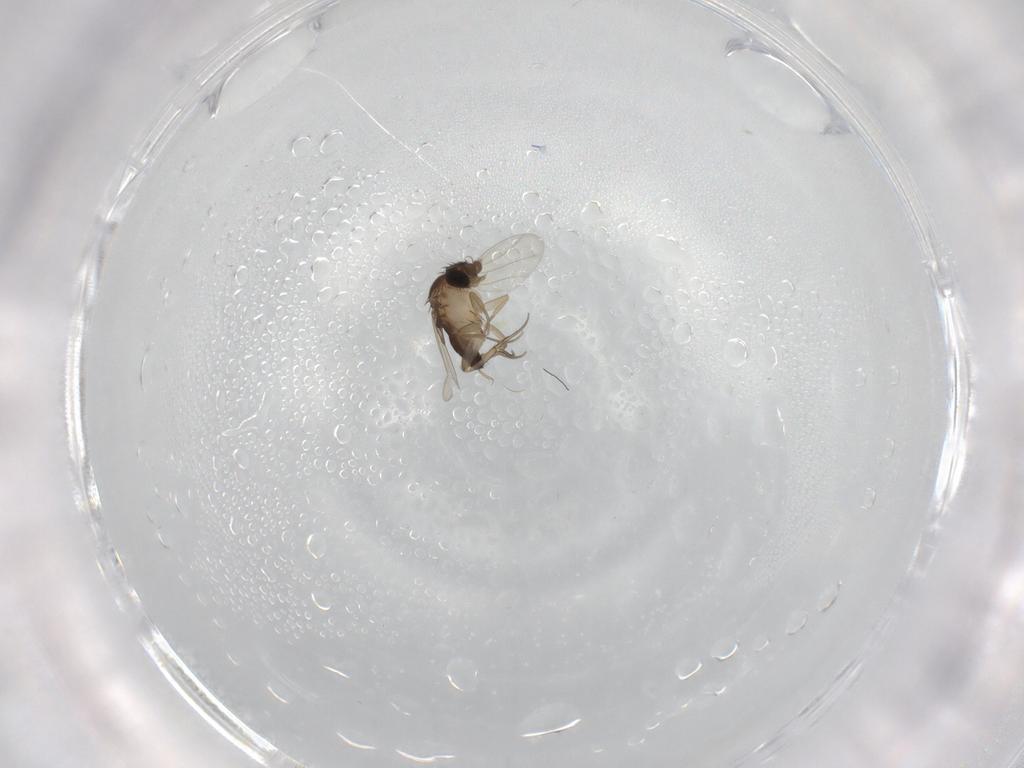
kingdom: Animalia
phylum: Arthropoda
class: Insecta
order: Diptera
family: Phoridae
